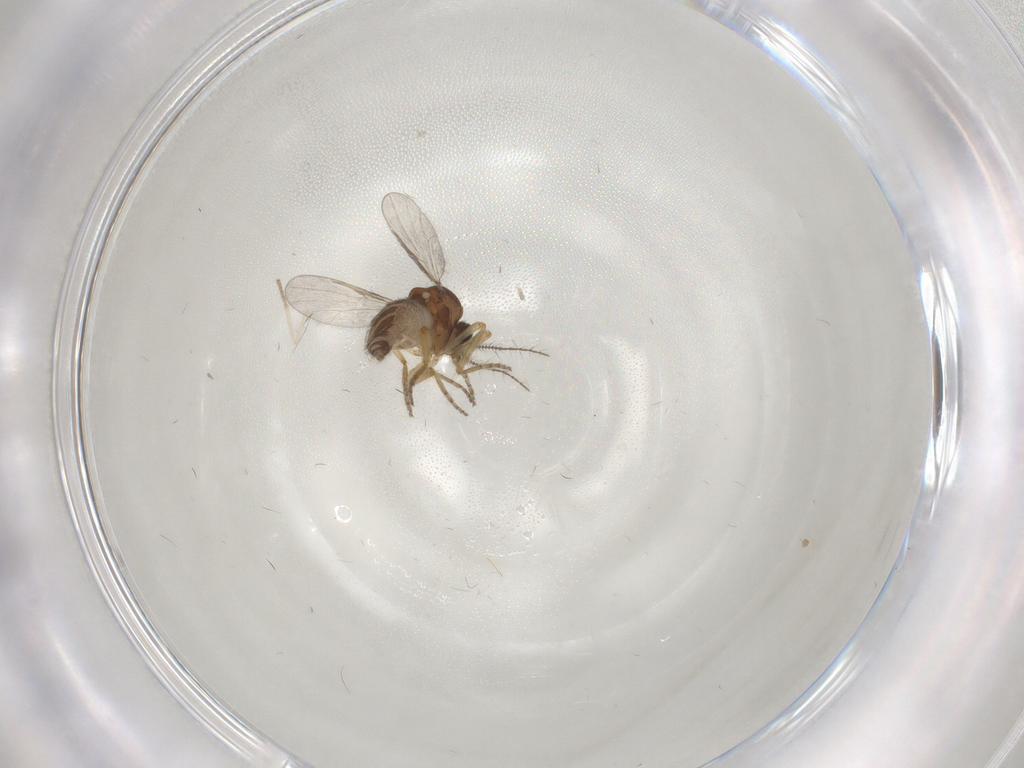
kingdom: Animalia
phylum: Arthropoda
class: Insecta
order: Diptera
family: Ceratopogonidae
